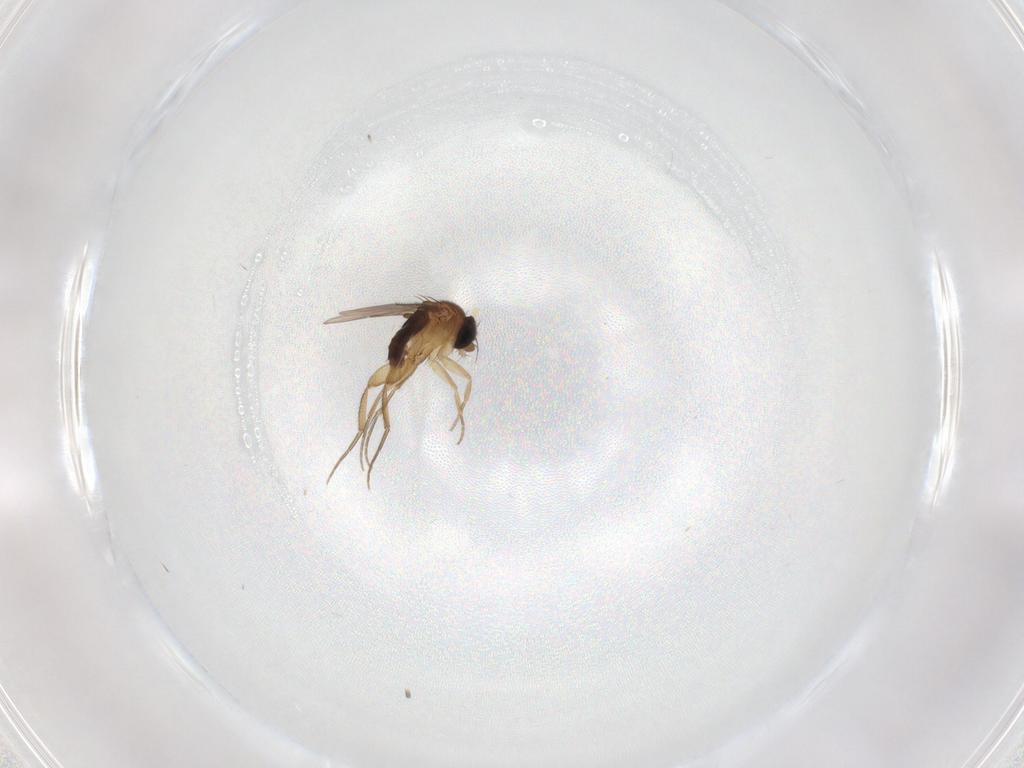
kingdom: Animalia
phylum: Arthropoda
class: Insecta
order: Diptera
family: Phoridae
